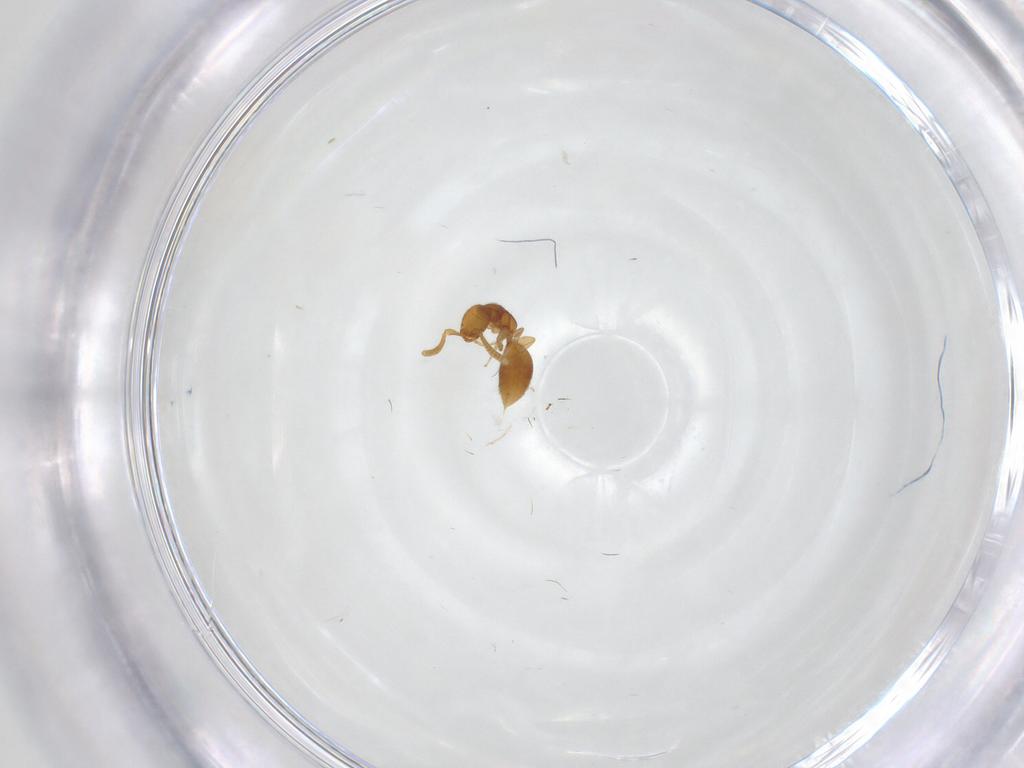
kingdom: Animalia
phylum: Arthropoda
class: Insecta
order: Hymenoptera
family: Bethylidae
